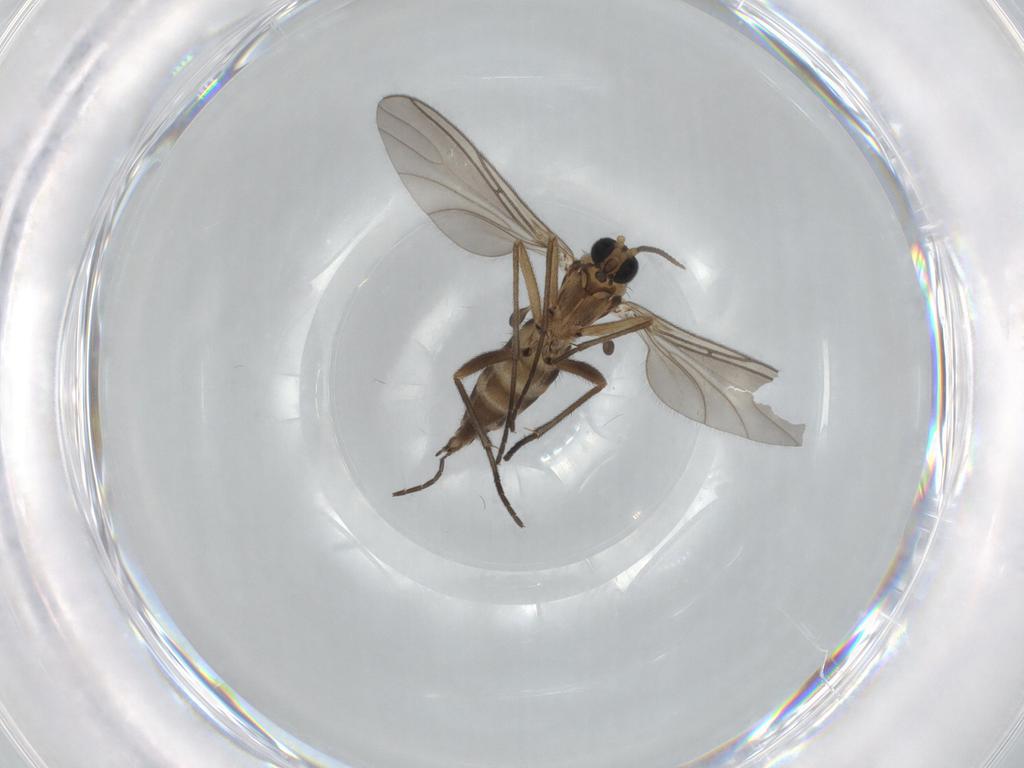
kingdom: Animalia
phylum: Arthropoda
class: Insecta
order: Diptera
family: Sciaridae
